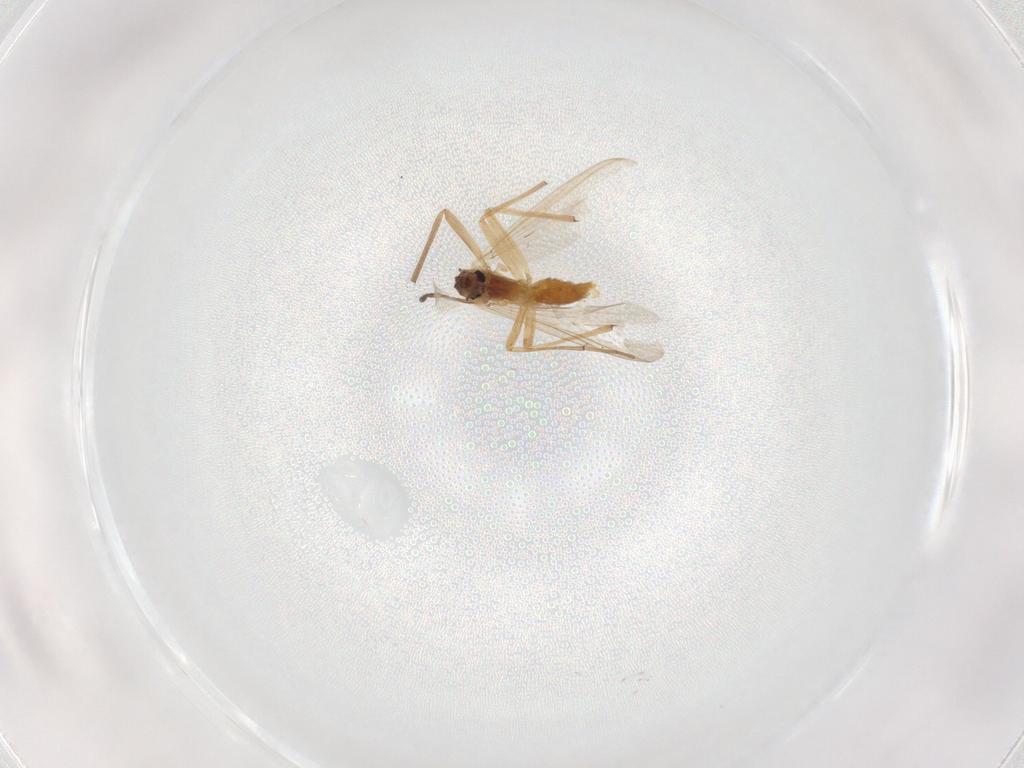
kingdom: Animalia
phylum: Arthropoda
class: Insecta
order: Diptera
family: Chironomidae
